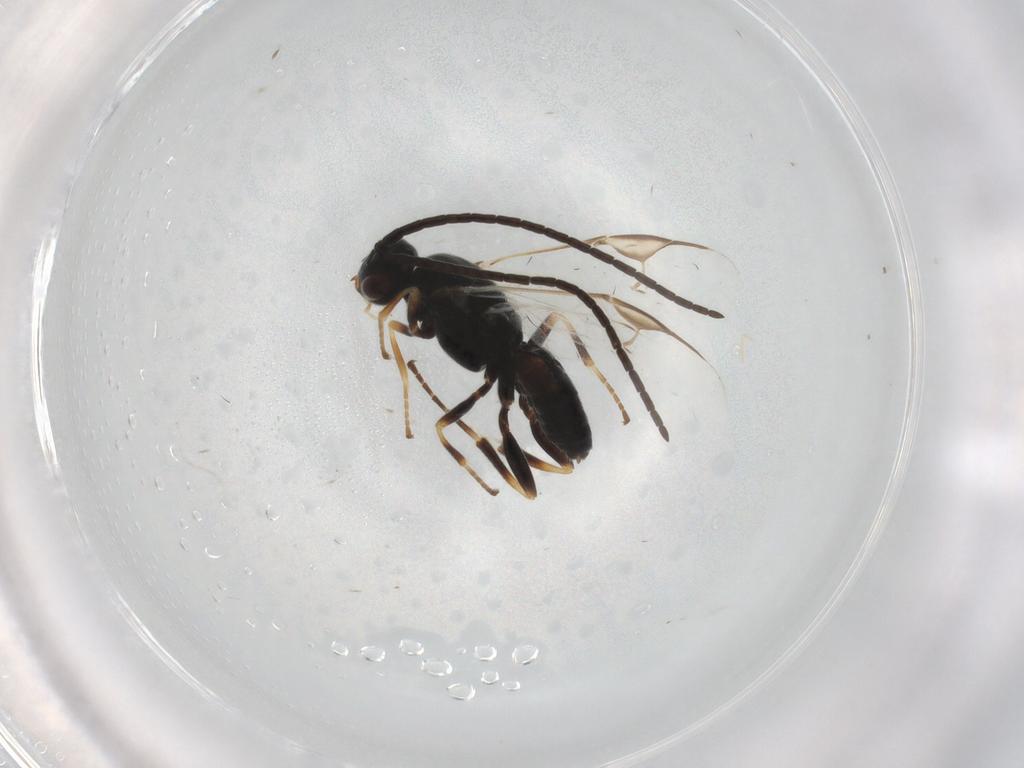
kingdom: Animalia
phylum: Arthropoda
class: Insecta
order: Hymenoptera
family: Braconidae
